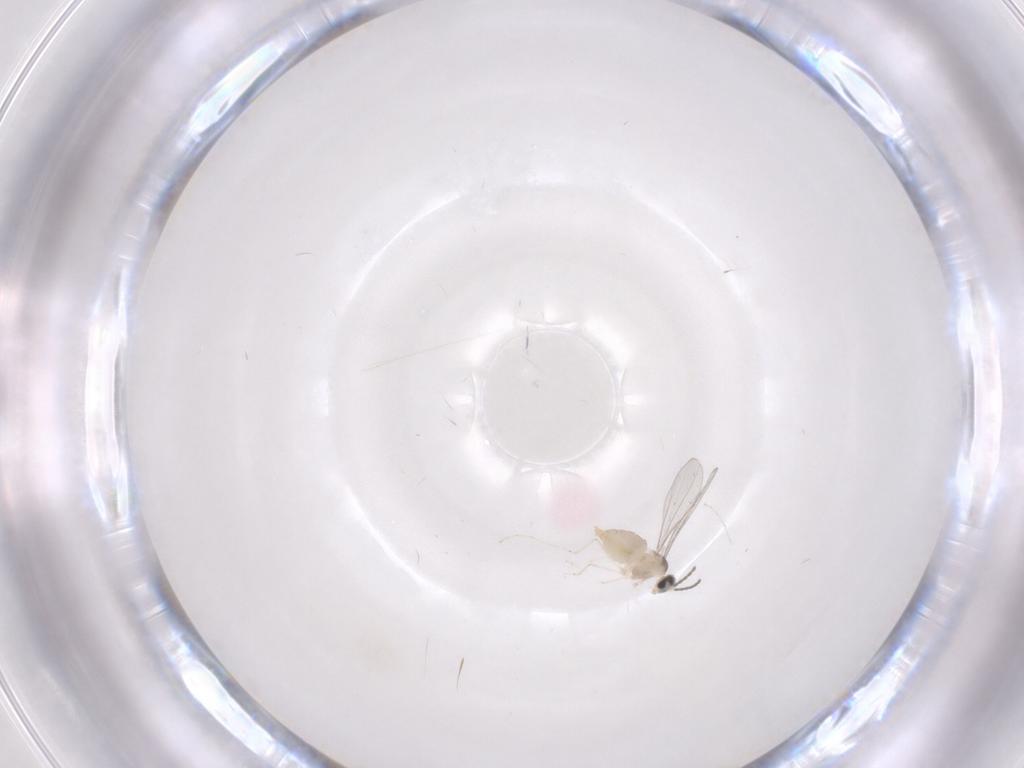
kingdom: Animalia
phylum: Arthropoda
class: Insecta
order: Diptera
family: Cecidomyiidae
